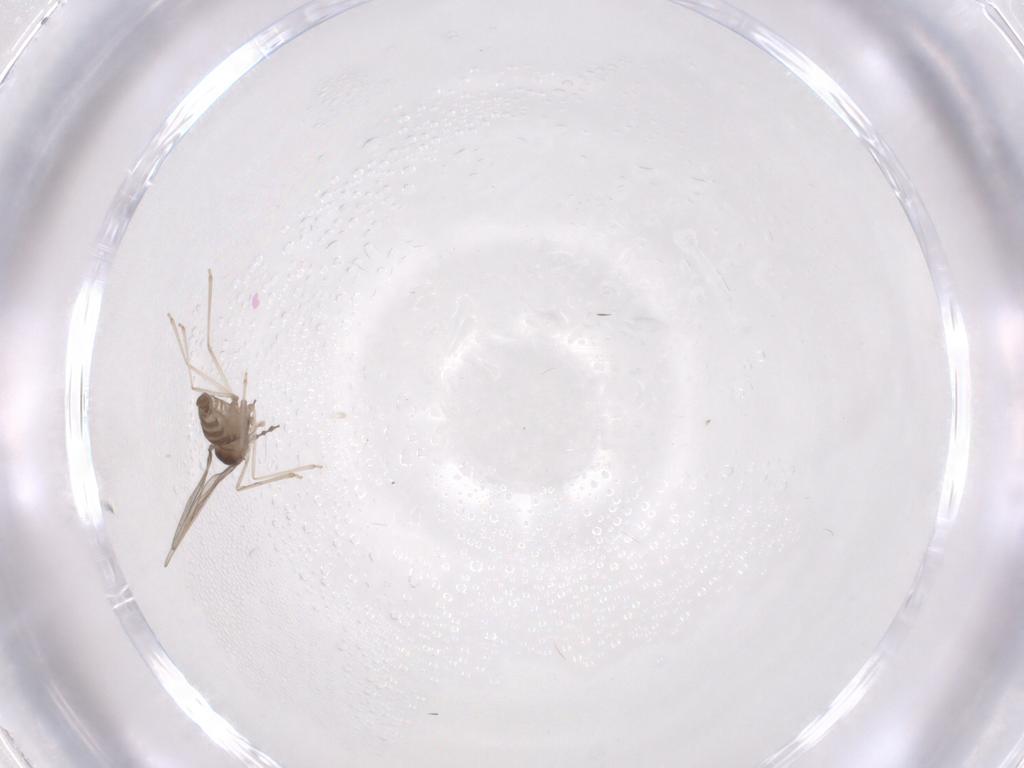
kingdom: Animalia
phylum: Arthropoda
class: Insecta
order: Diptera
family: Cecidomyiidae
